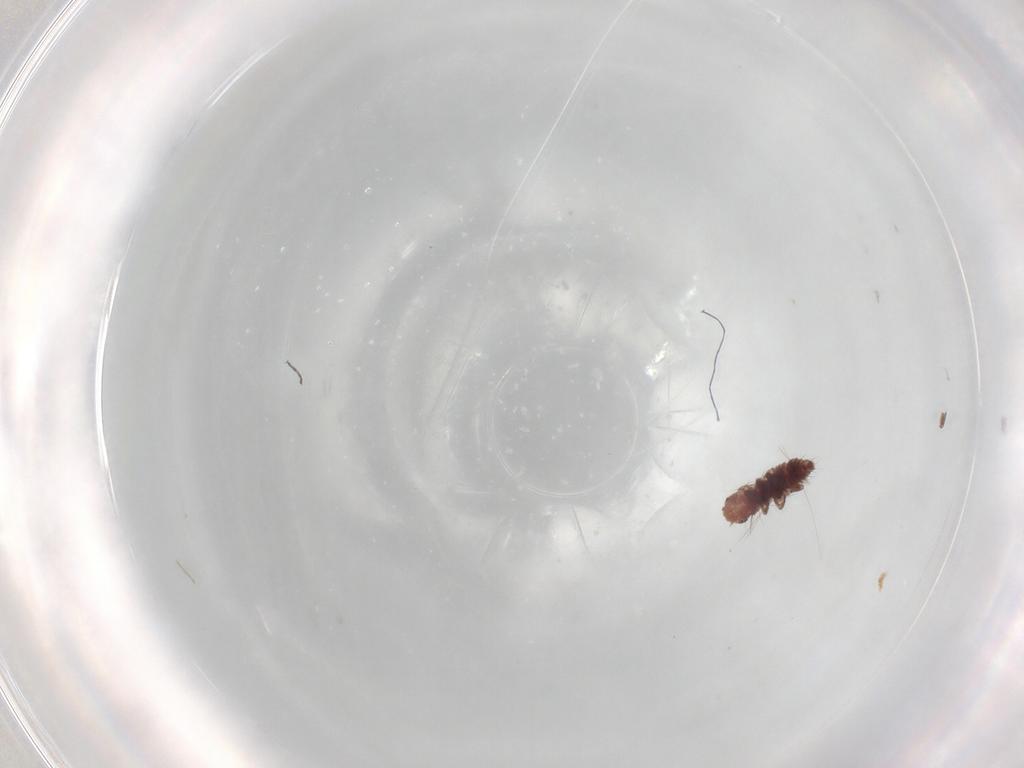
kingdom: Animalia
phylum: Arthropoda
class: Insecta
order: Coleoptera
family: Coccinellidae
